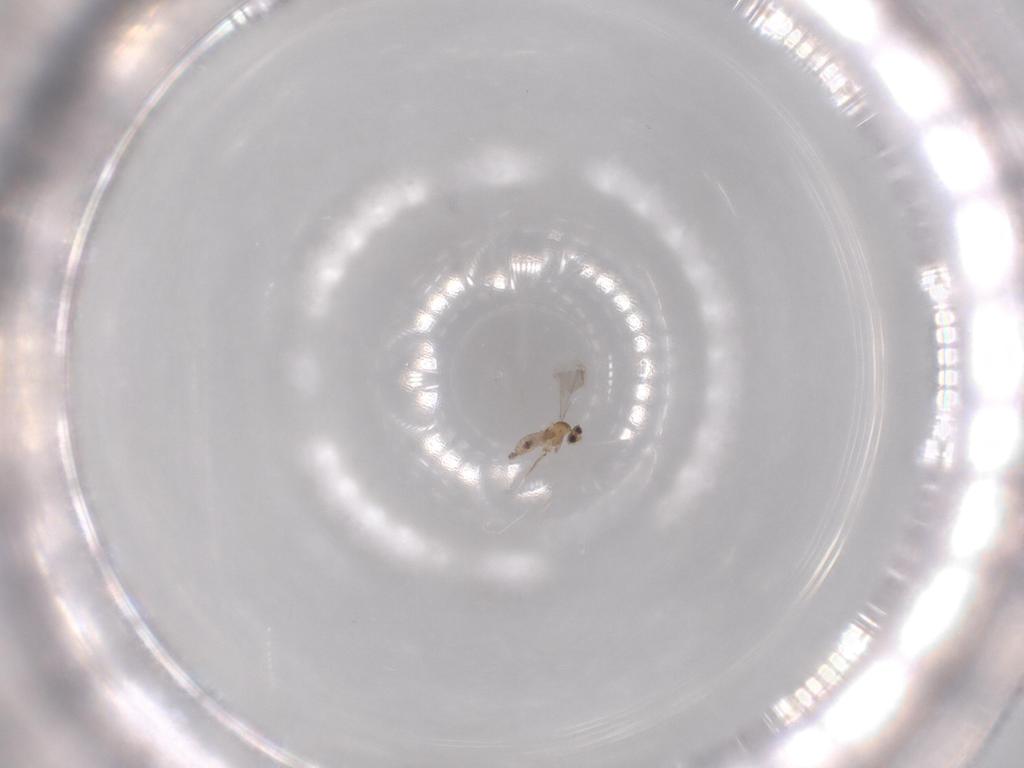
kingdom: Animalia
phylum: Arthropoda
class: Insecta
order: Diptera
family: Cecidomyiidae
